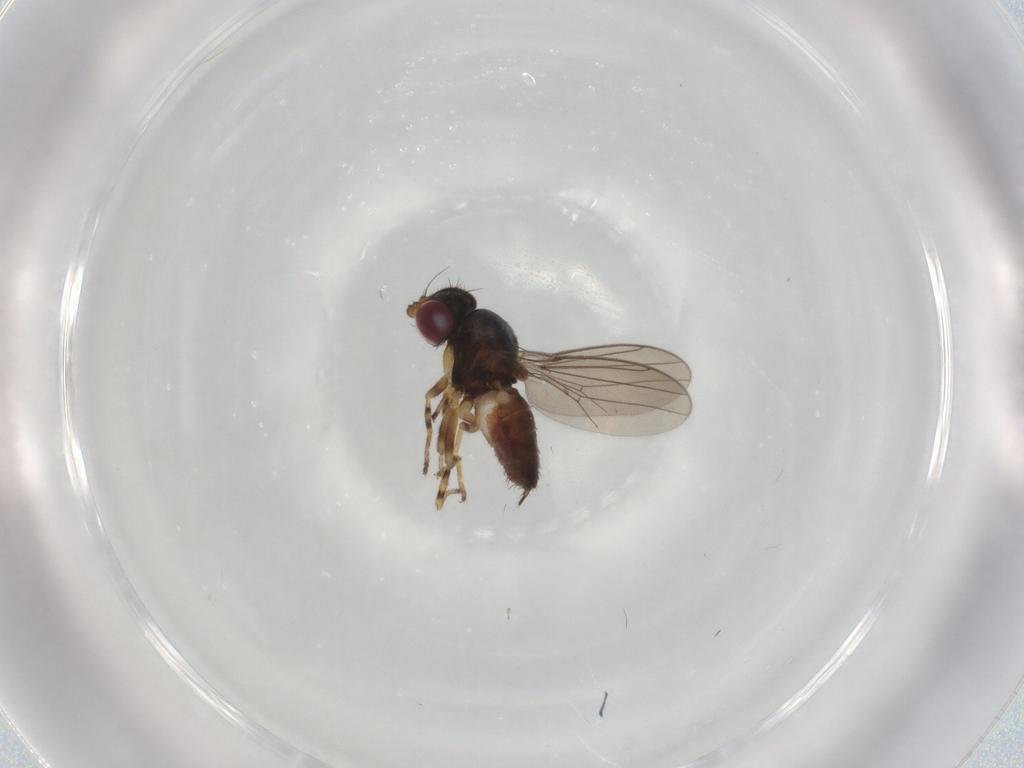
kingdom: Animalia
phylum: Arthropoda
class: Insecta
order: Diptera
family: Chloropidae
